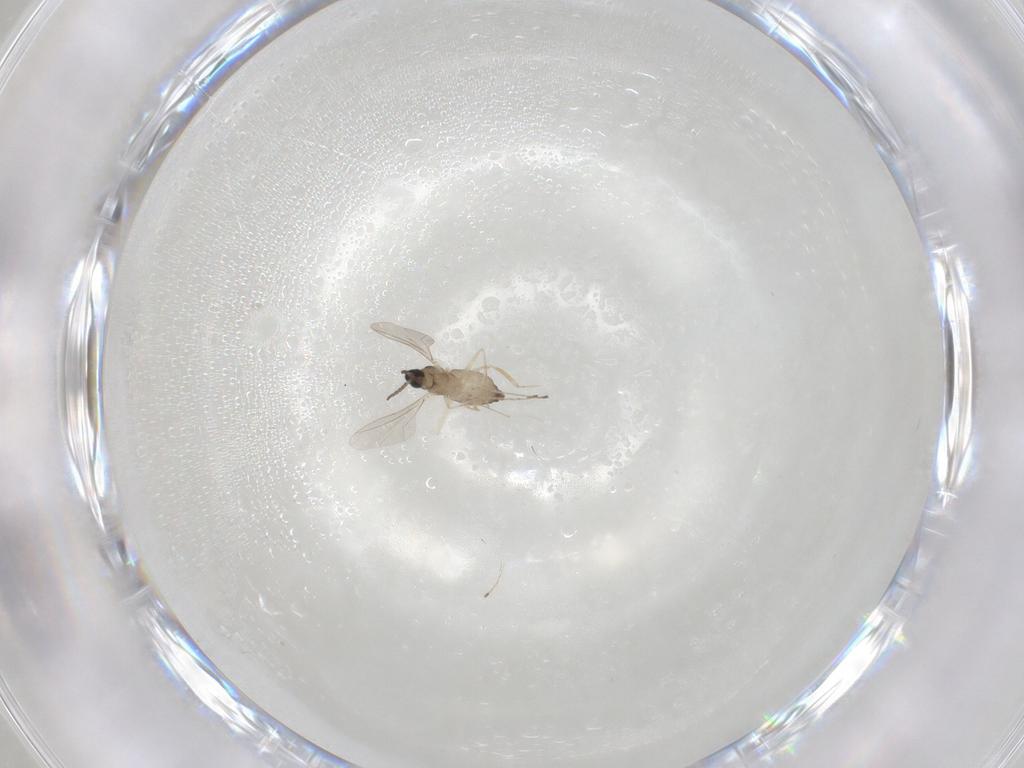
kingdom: Animalia
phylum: Arthropoda
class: Insecta
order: Diptera
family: Cecidomyiidae
